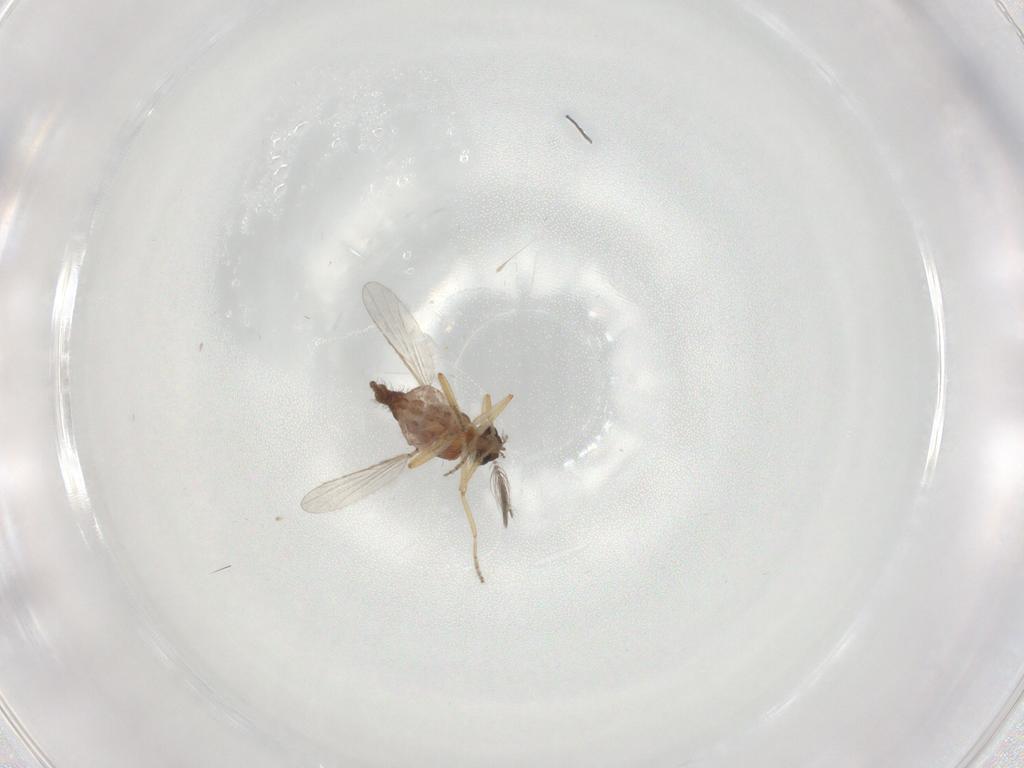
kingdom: Animalia
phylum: Arthropoda
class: Insecta
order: Diptera
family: Ceratopogonidae
